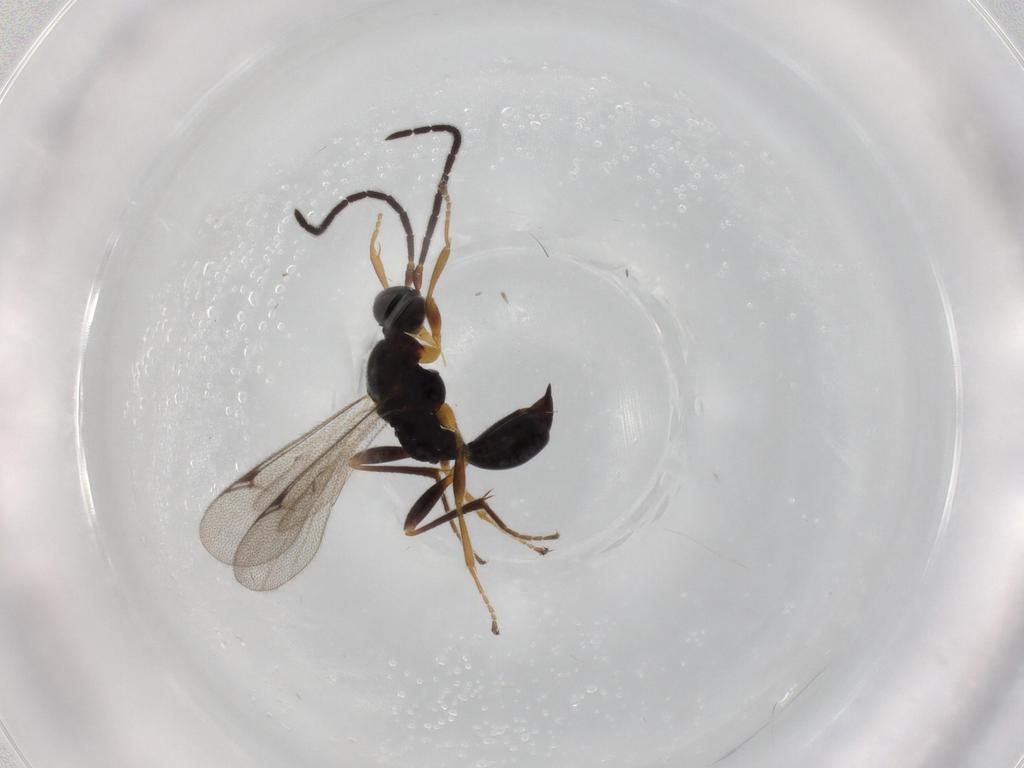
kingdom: Animalia
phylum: Arthropoda
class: Insecta
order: Hymenoptera
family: Proctotrupidae
